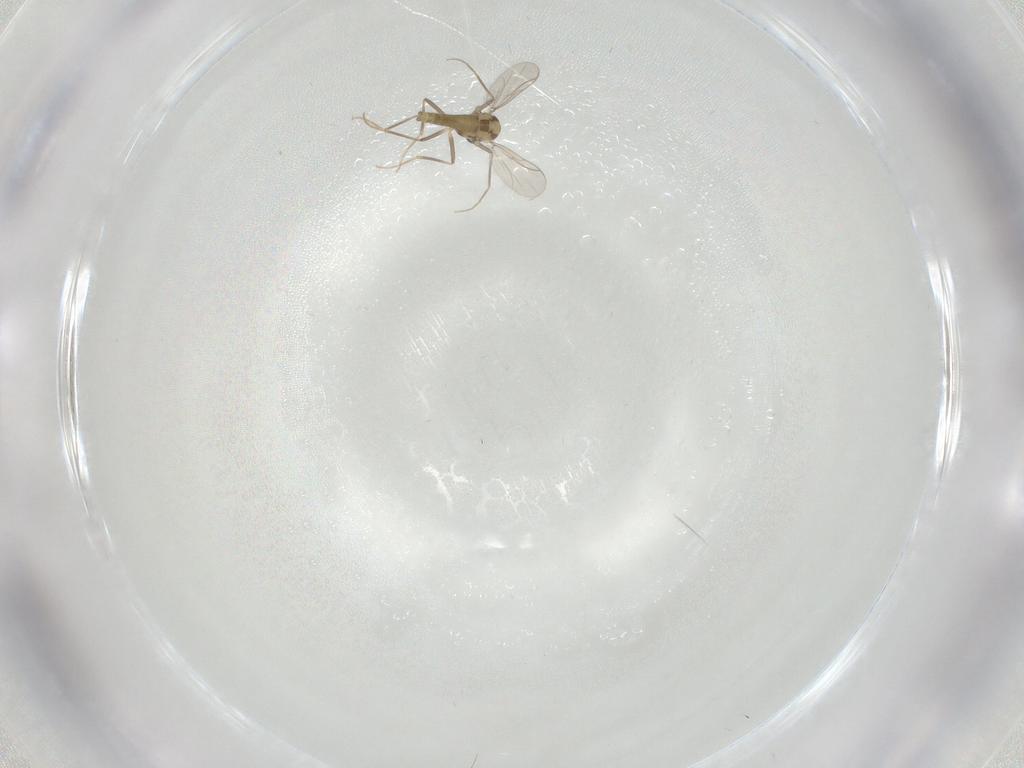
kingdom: Animalia
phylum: Arthropoda
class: Insecta
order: Diptera
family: Chironomidae
